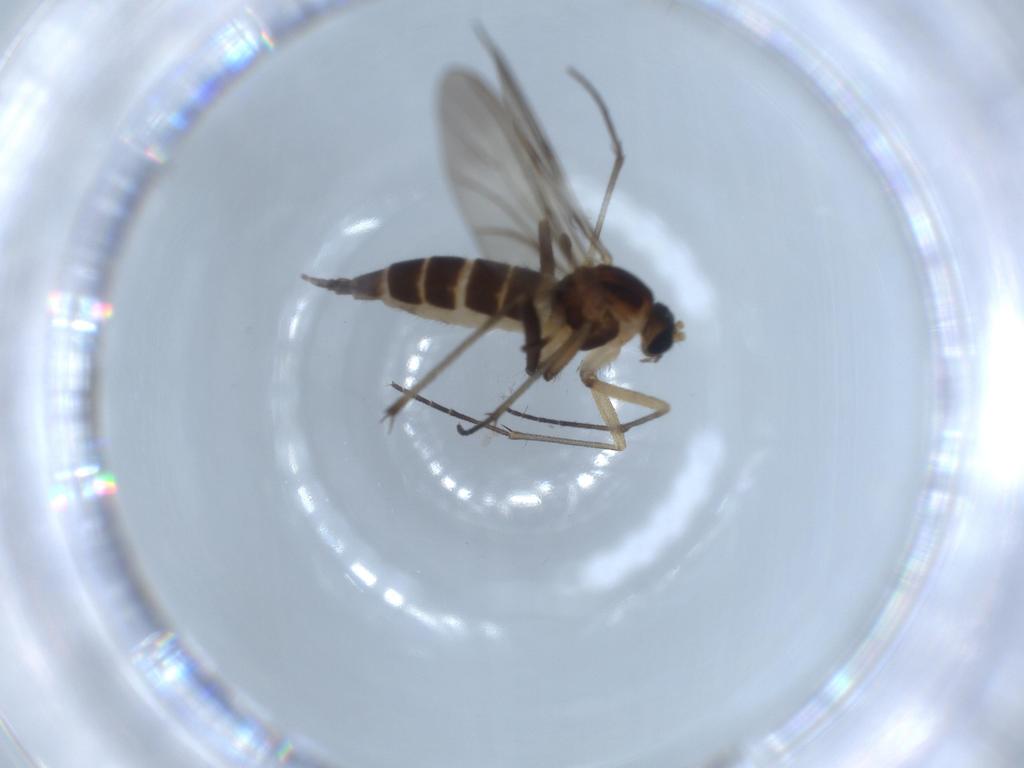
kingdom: Animalia
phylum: Arthropoda
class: Insecta
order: Diptera
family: Sciaridae
